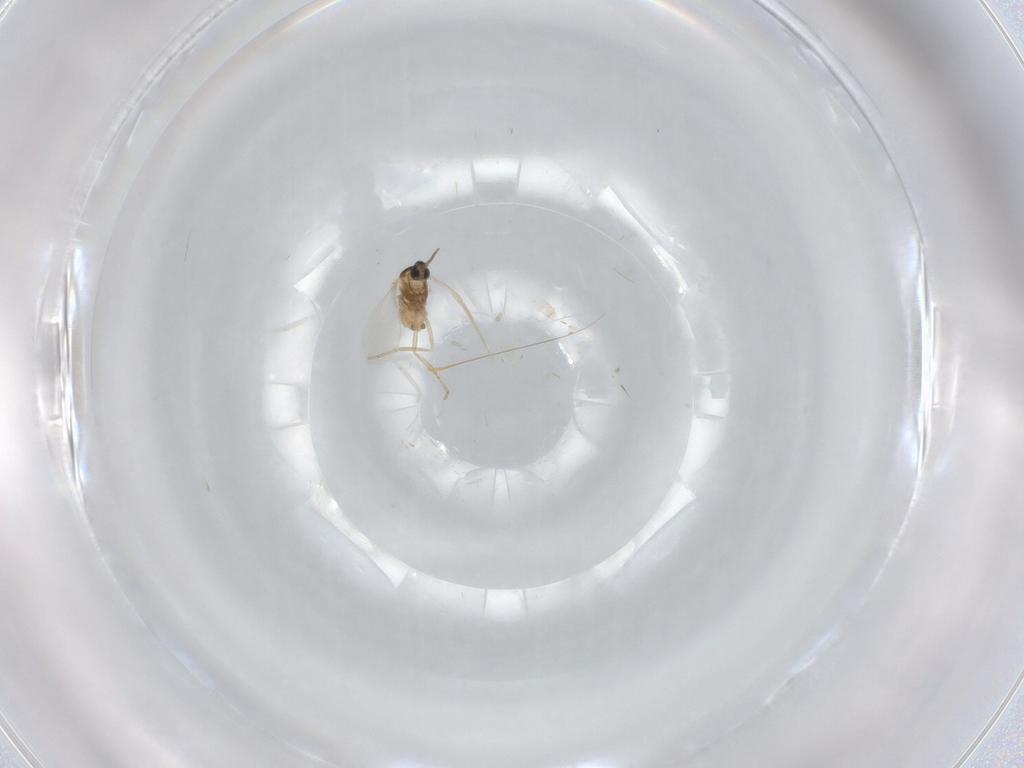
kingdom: Animalia
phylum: Arthropoda
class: Insecta
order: Diptera
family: Cecidomyiidae
